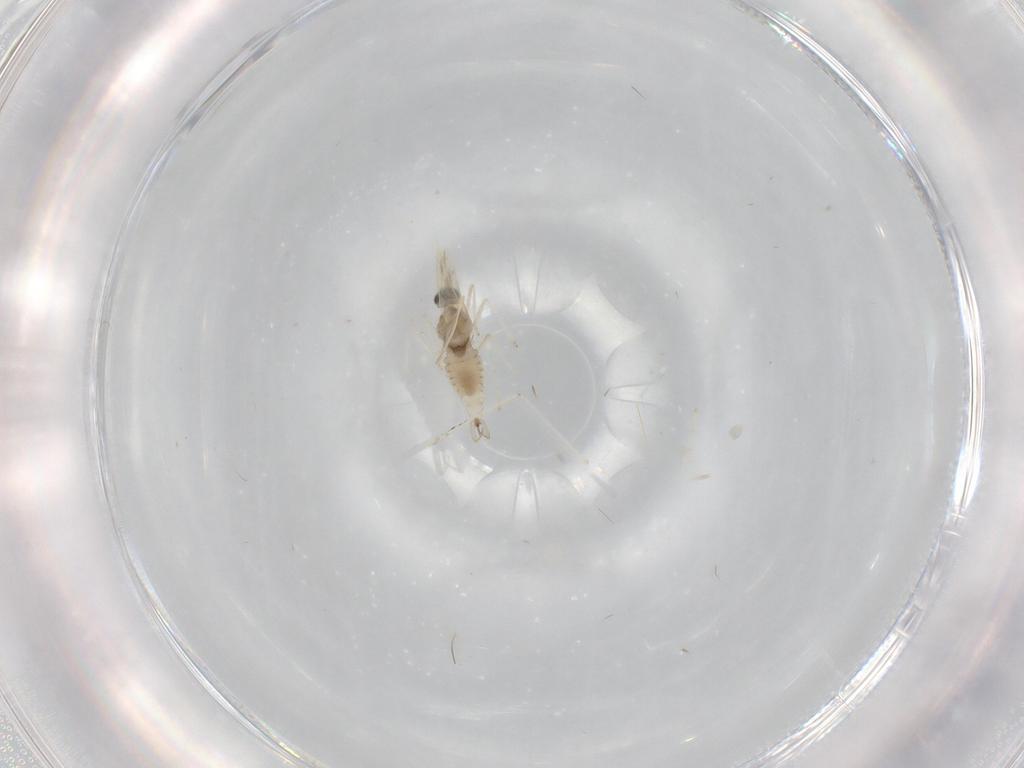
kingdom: Animalia
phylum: Arthropoda
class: Insecta
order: Diptera
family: Cecidomyiidae
